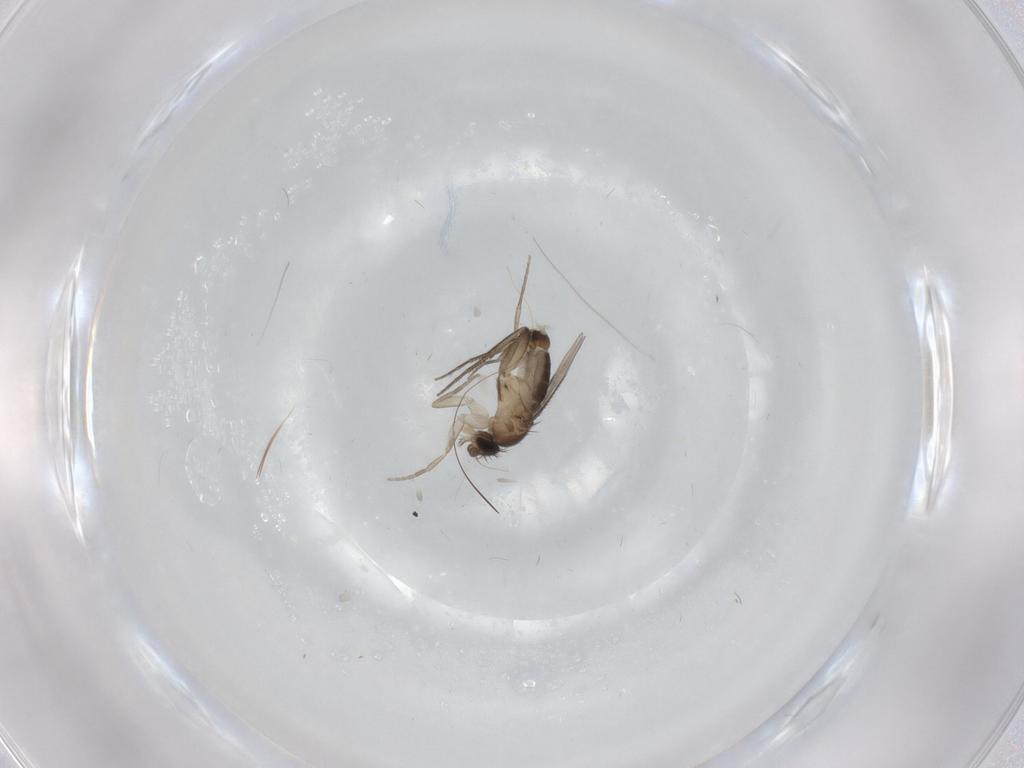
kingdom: Animalia
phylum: Arthropoda
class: Insecta
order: Diptera
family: Ceratopogonidae
